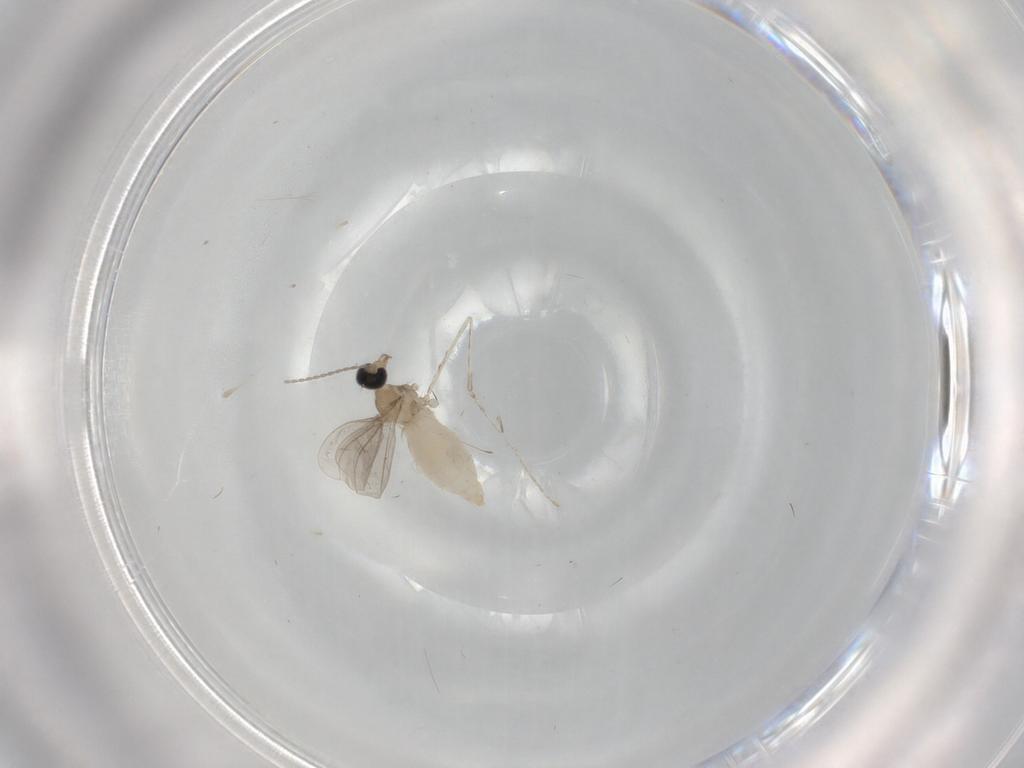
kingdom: Animalia
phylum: Arthropoda
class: Insecta
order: Diptera
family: Cecidomyiidae
